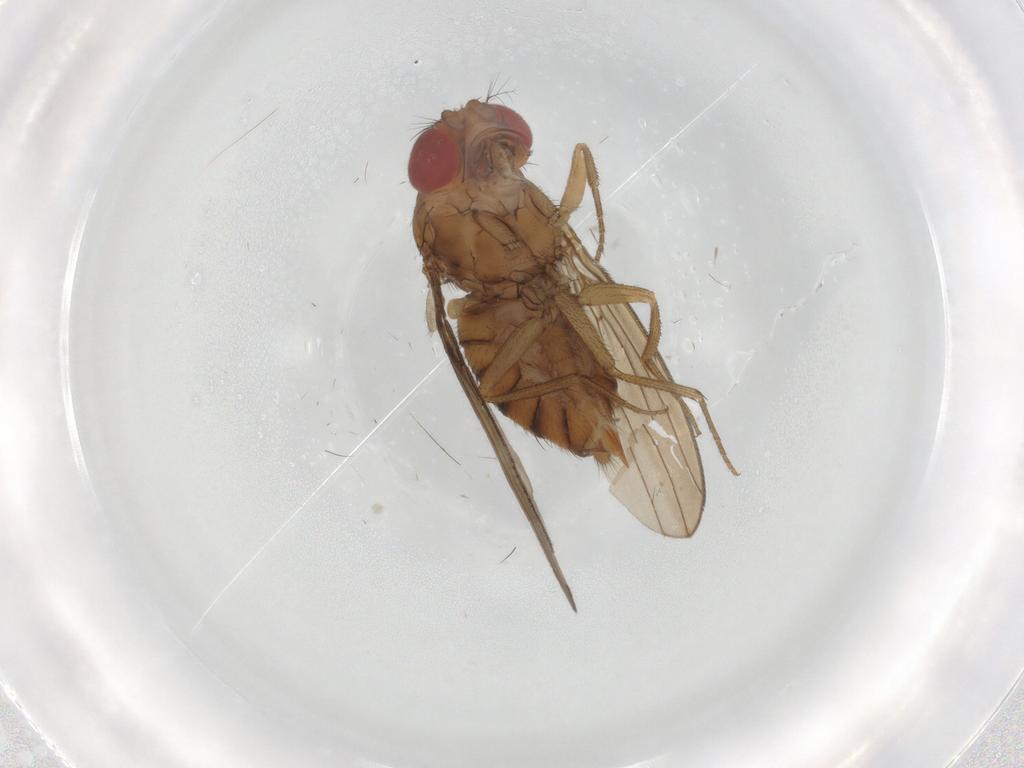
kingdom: Animalia
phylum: Arthropoda
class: Insecta
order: Diptera
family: Drosophilidae
